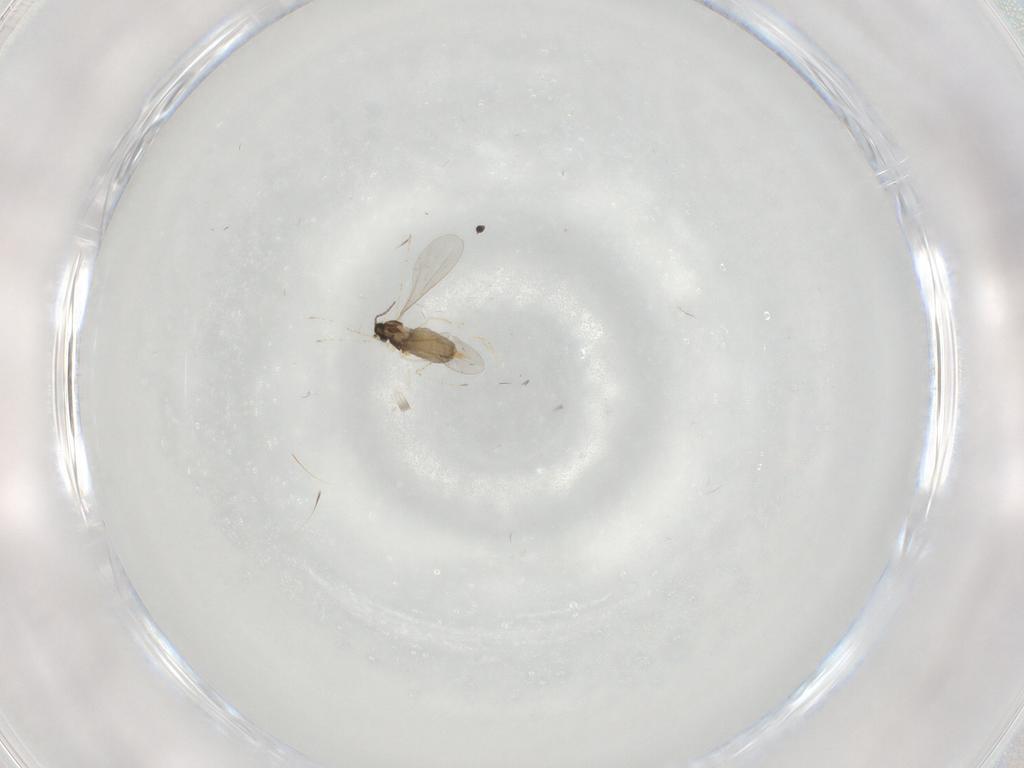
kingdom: Animalia
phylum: Arthropoda
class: Insecta
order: Diptera
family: Cecidomyiidae
